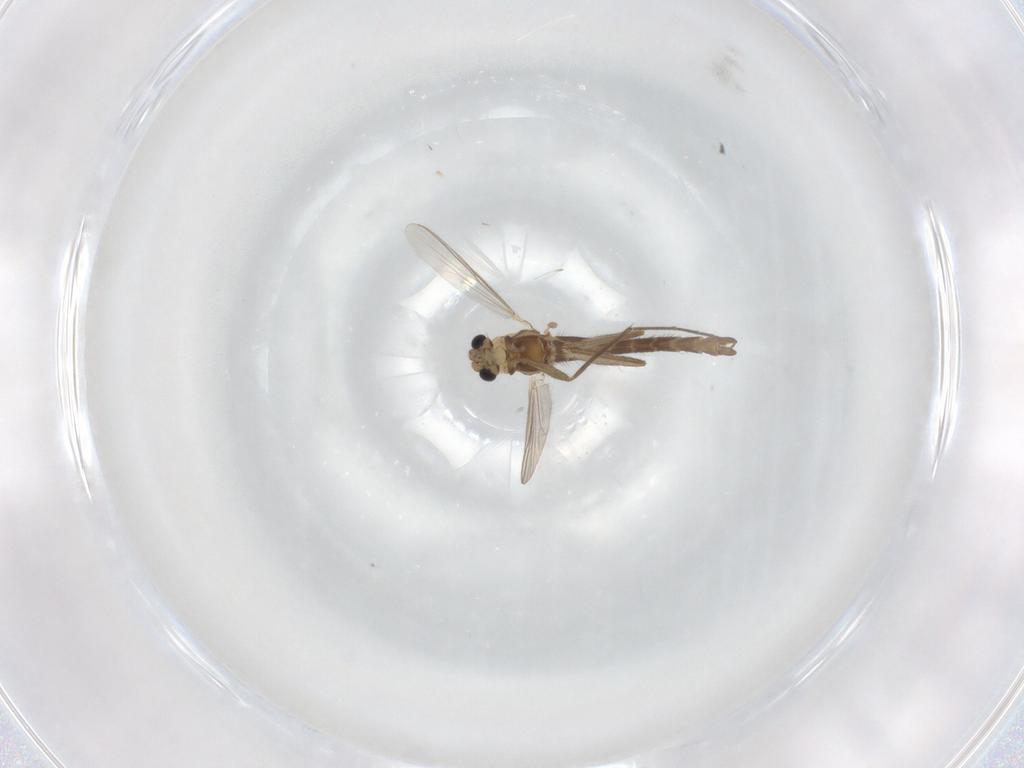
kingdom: Animalia
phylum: Arthropoda
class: Insecta
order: Diptera
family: Chironomidae
